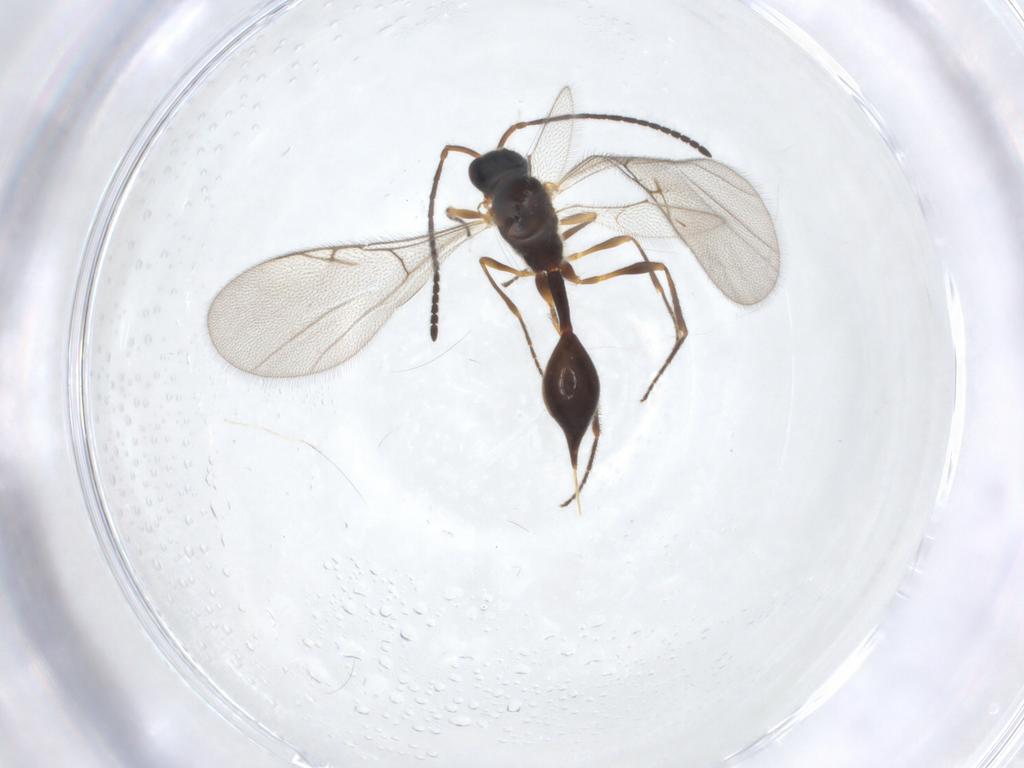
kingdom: Animalia
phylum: Arthropoda
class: Insecta
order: Hymenoptera
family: Diapriidae
